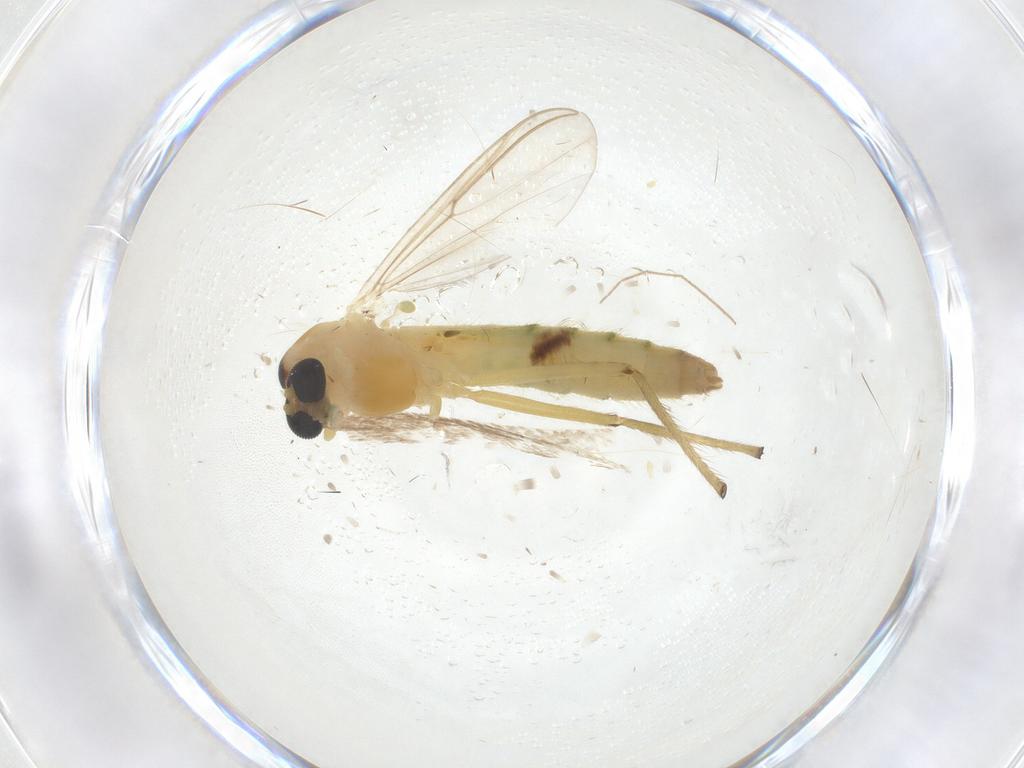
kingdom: Animalia
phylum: Arthropoda
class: Insecta
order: Diptera
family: Chironomidae
